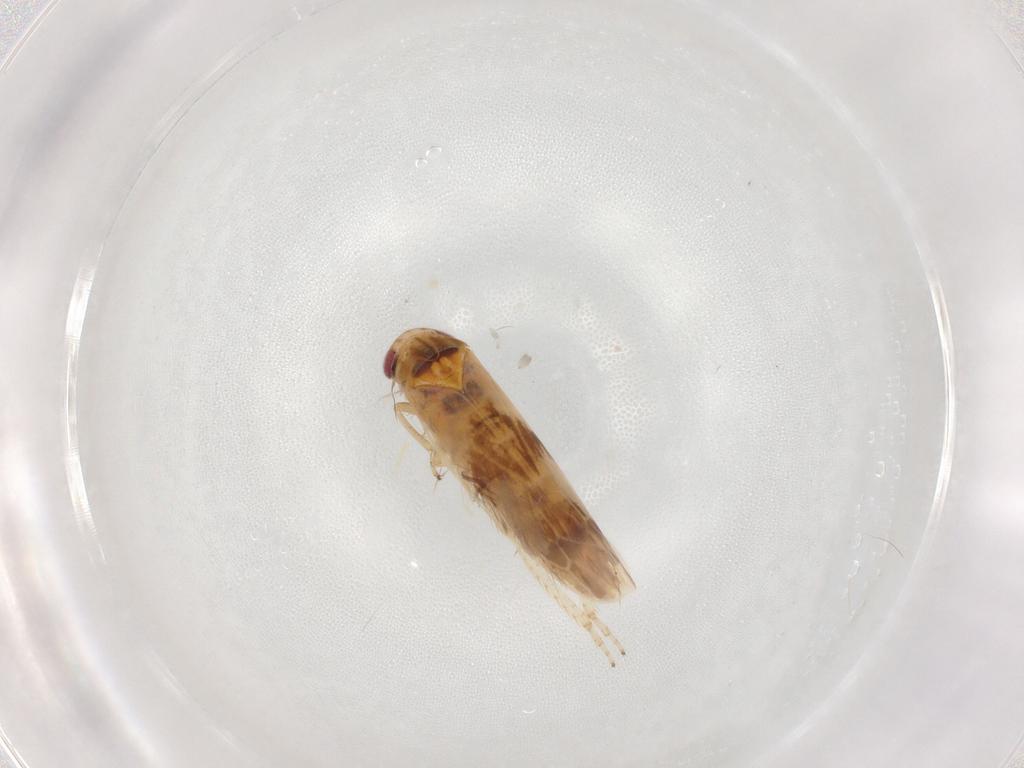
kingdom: Animalia
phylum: Arthropoda
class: Insecta
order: Hemiptera
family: Cicadellidae
